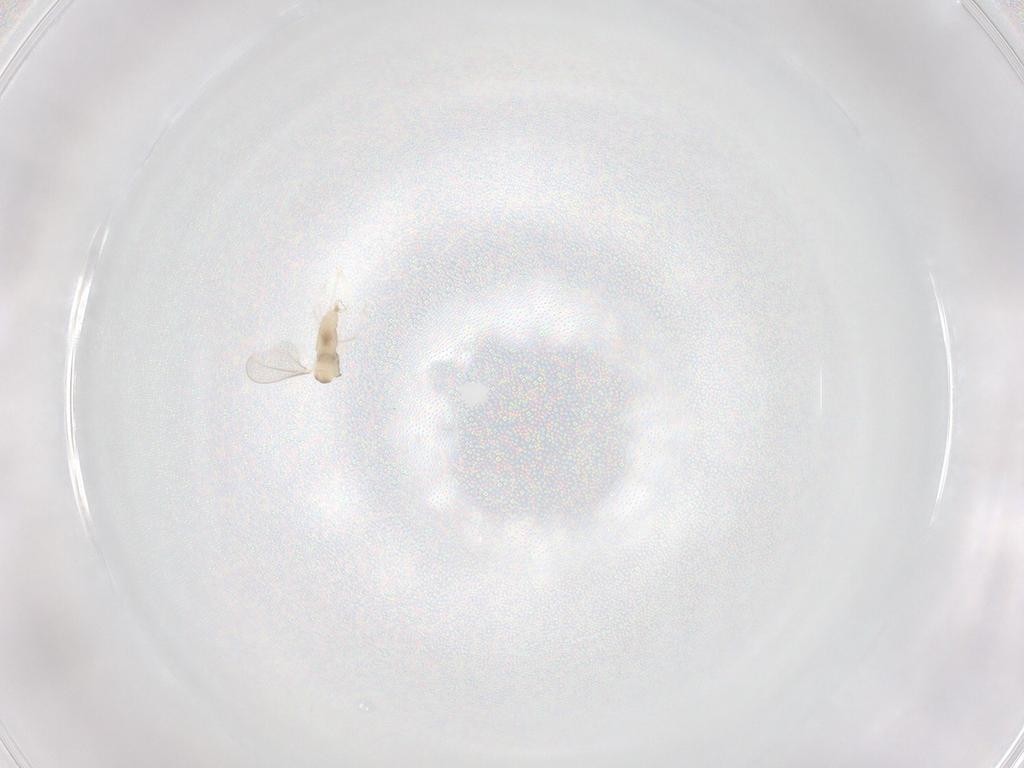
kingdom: Animalia
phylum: Arthropoda
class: Insecta
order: Diptera
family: Cecidomyiidae
